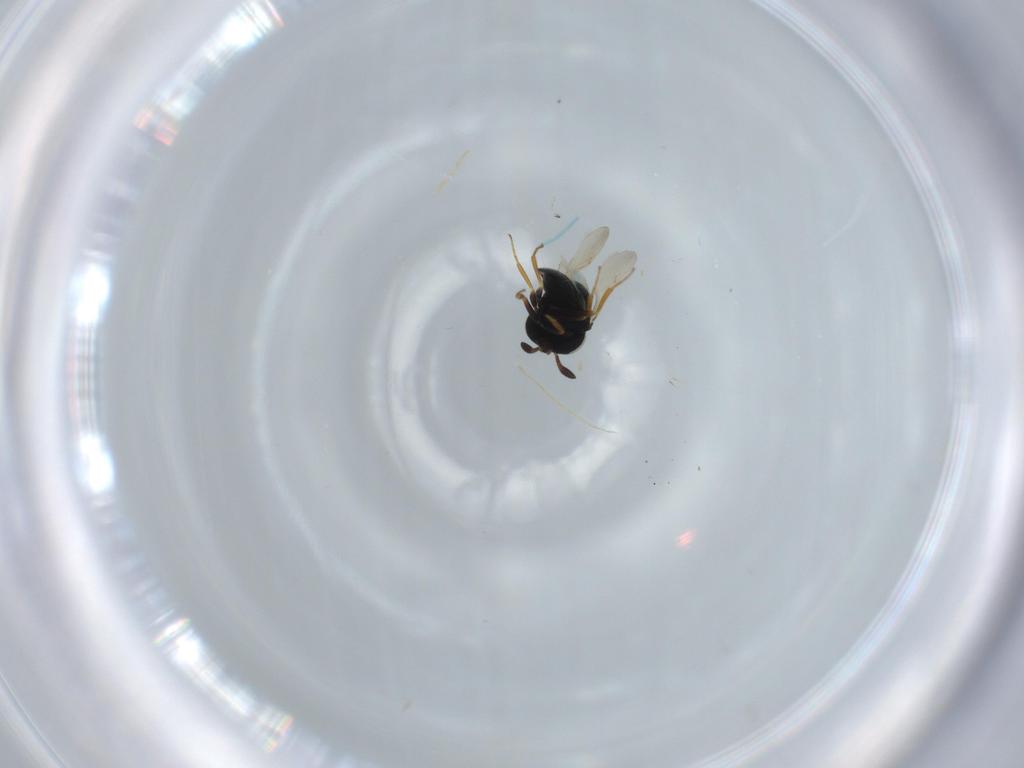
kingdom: Animalia
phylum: Arthropoda
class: Insecta
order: Hymenoptera
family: Scelionidae
